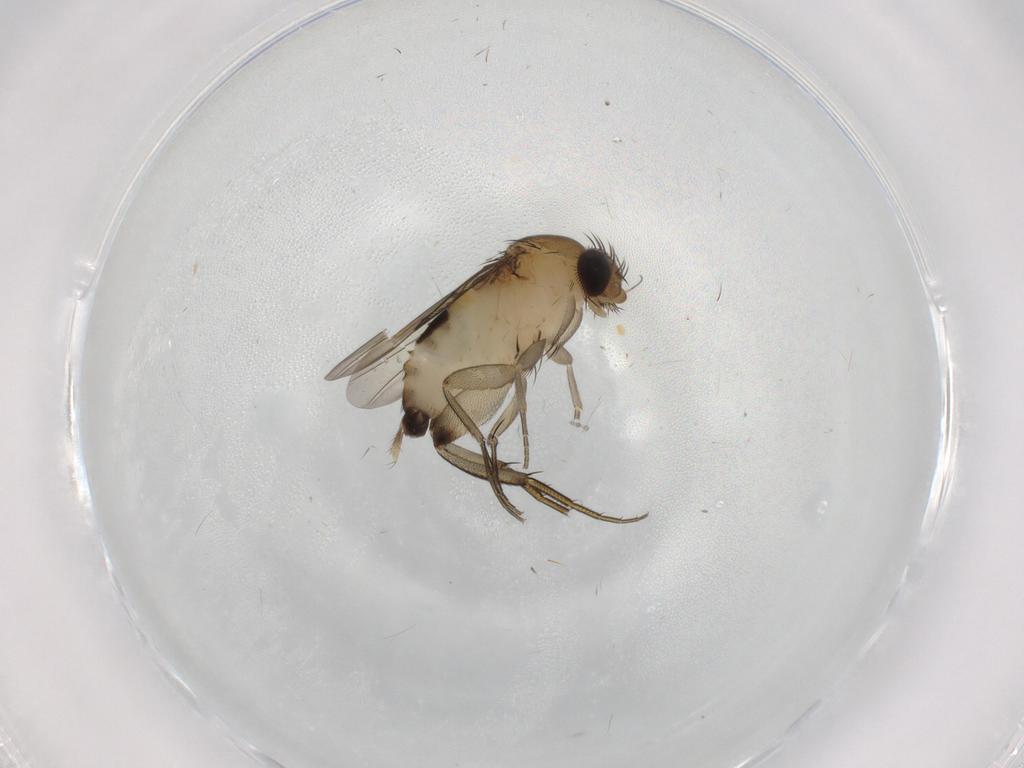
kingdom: Animalia
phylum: Arthropoda
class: Insecta
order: Diptera
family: Phoridae
